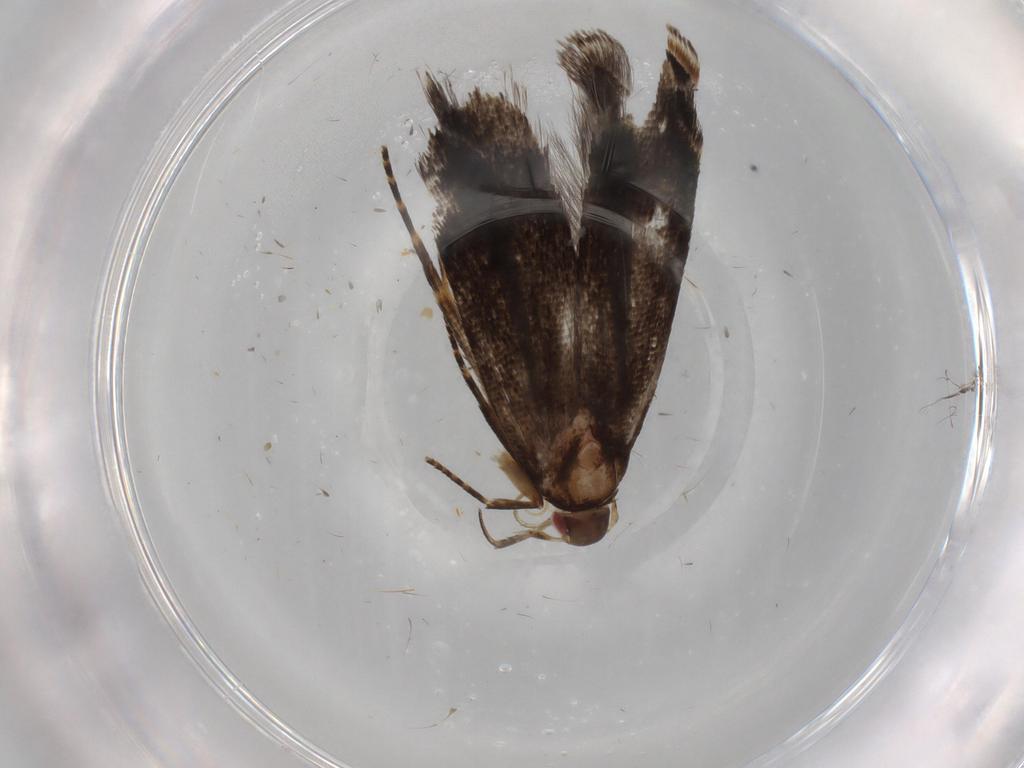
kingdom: Animalia
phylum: Arthropoda
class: Insecta
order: Lepidoptera
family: Gelechiidae
